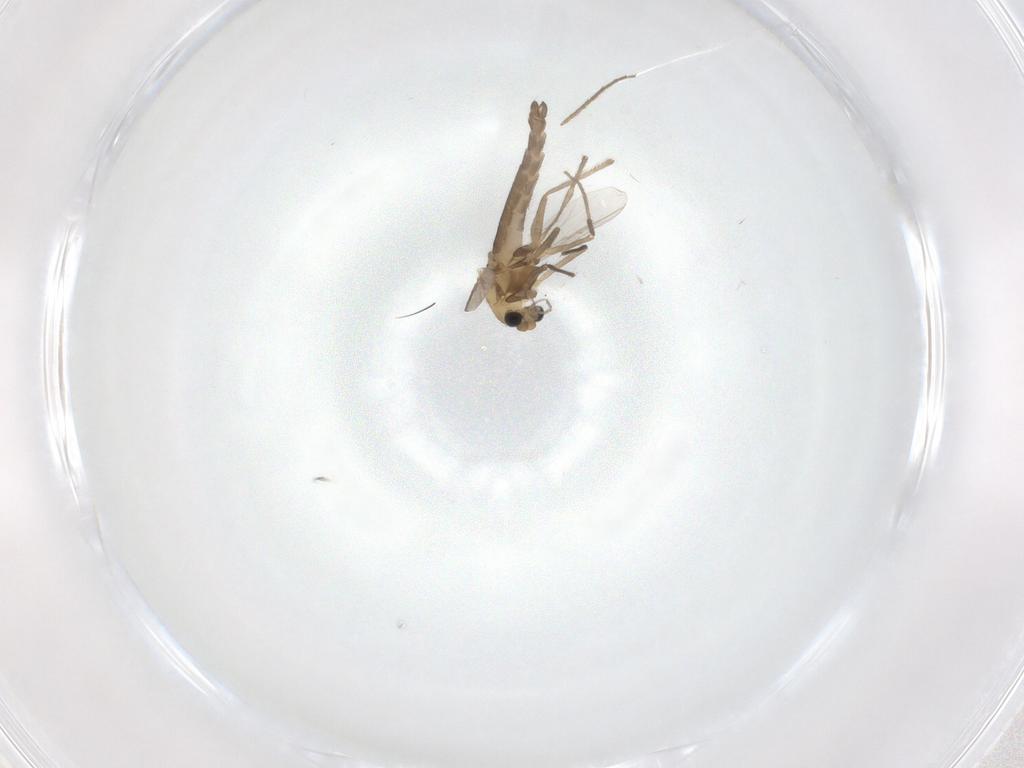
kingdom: Animalia
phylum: Arthropoda
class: Insecta
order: Diptera
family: Chironomidae
